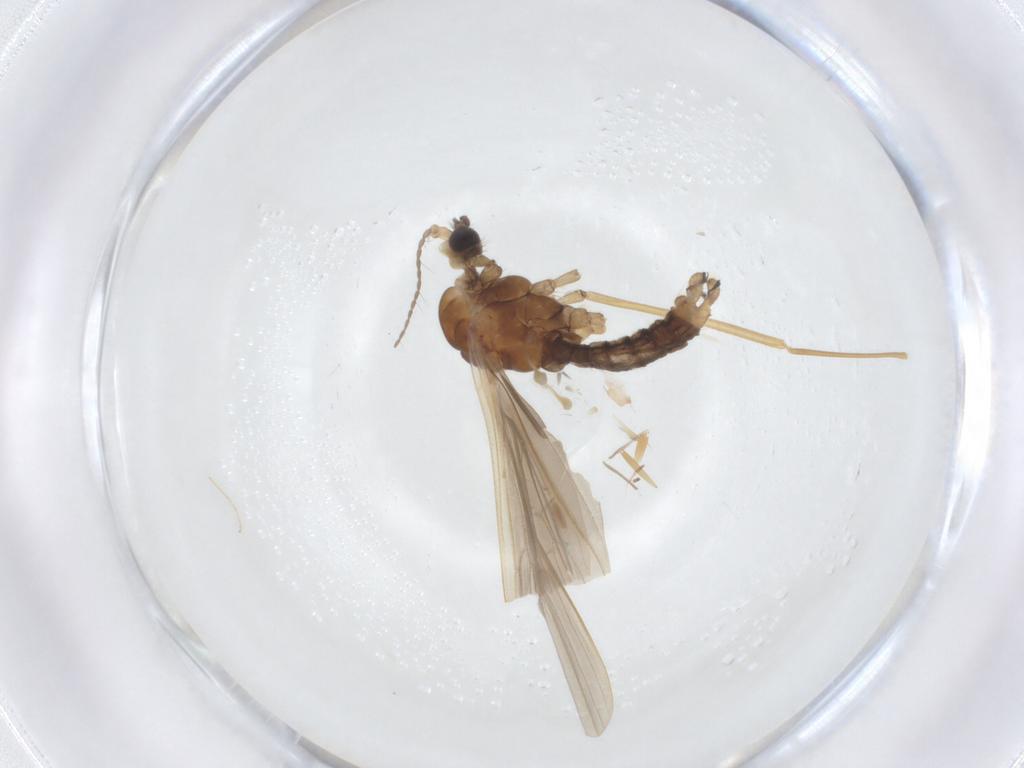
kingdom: Animalia
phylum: Arthropoda
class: Insecta
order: Diptera
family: Limoniidae
